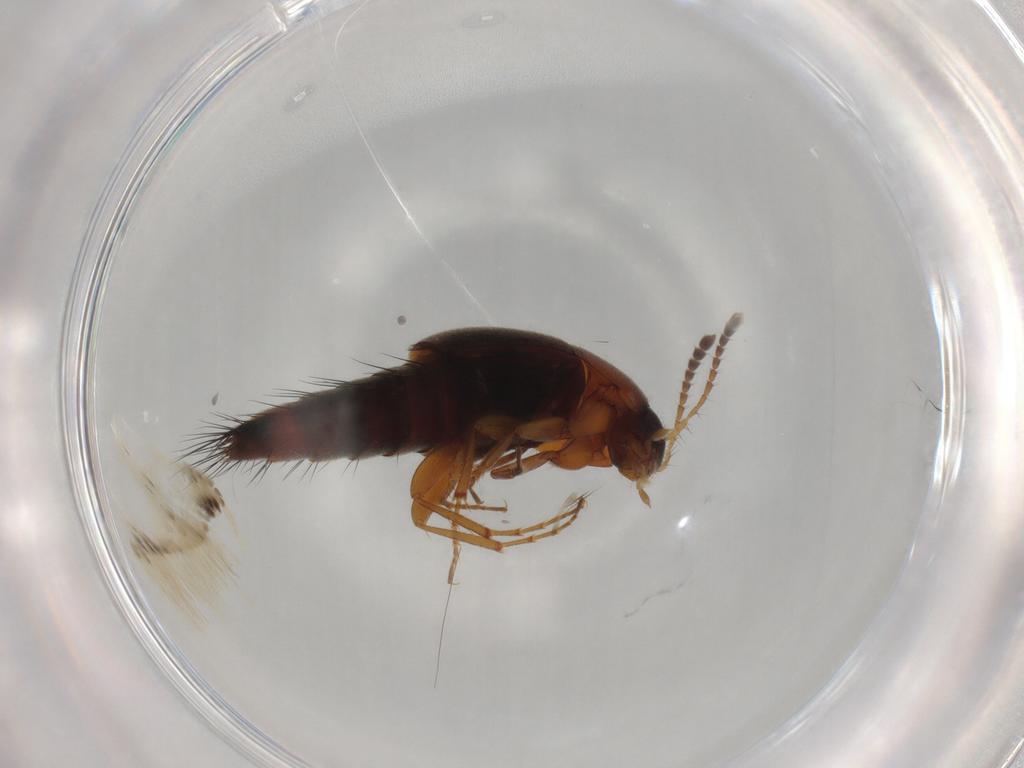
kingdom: Animalia
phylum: Arthropoda
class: Insecta
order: Coleoptera
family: Staphylinidae
